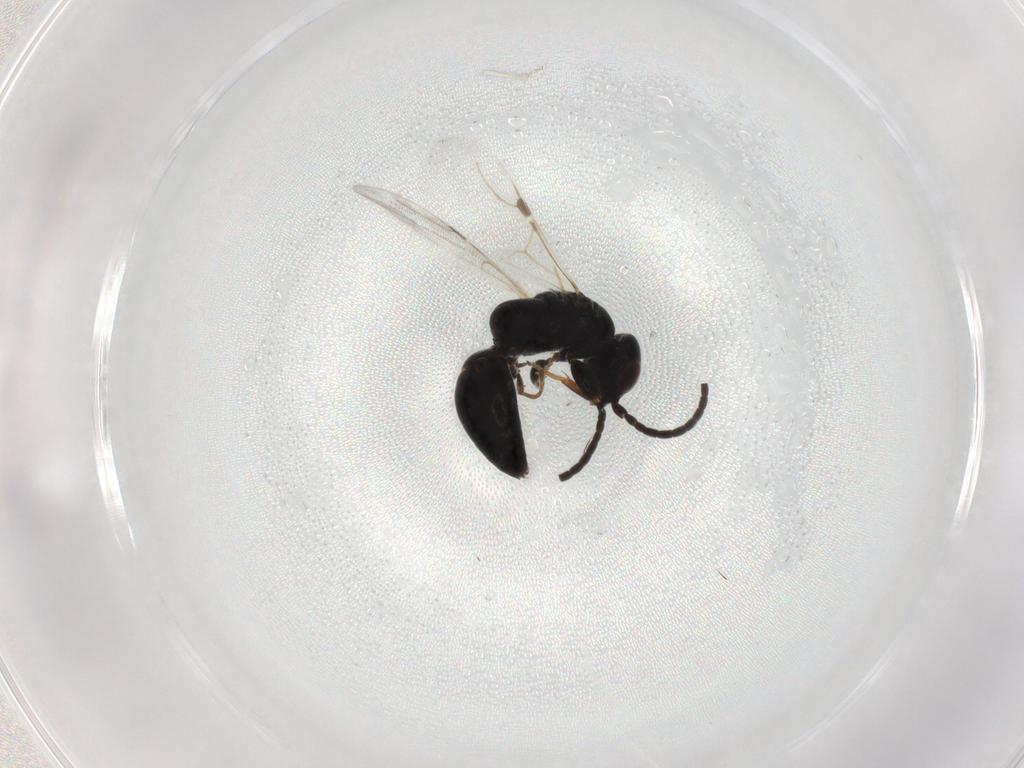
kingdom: Animalia
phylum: Arthropoda
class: Insecta
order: Hymenoptera
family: Bethylidae
